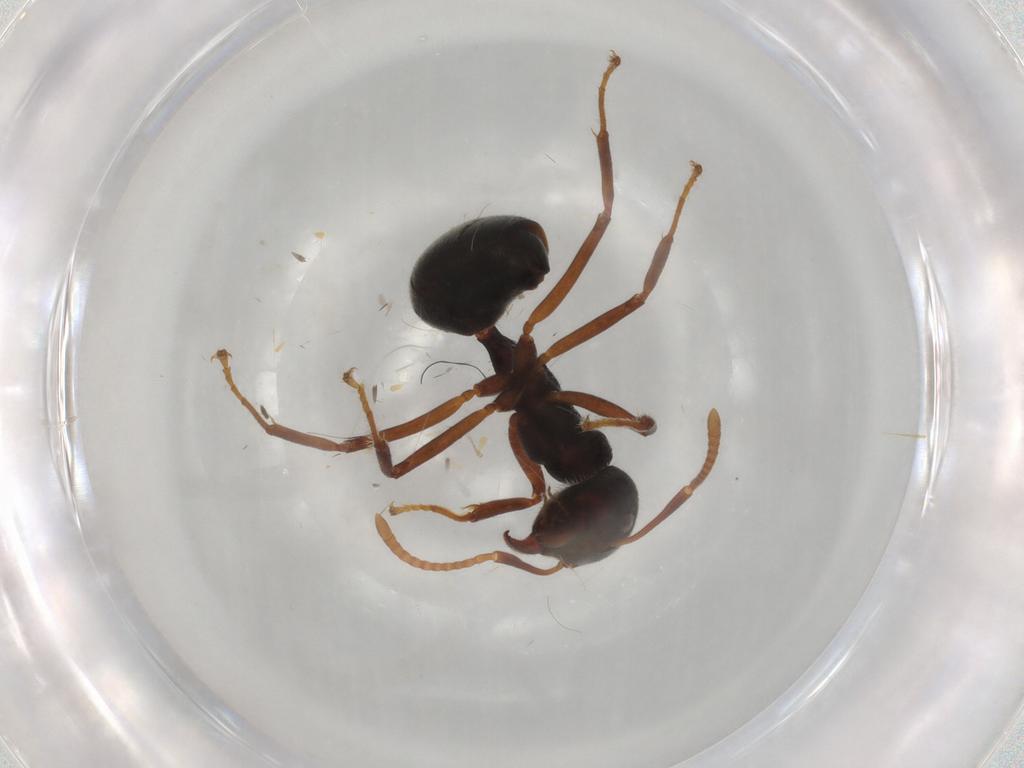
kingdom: Animalia
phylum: Arthropoda
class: Insecta
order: Hymenoptera
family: Formicidae
